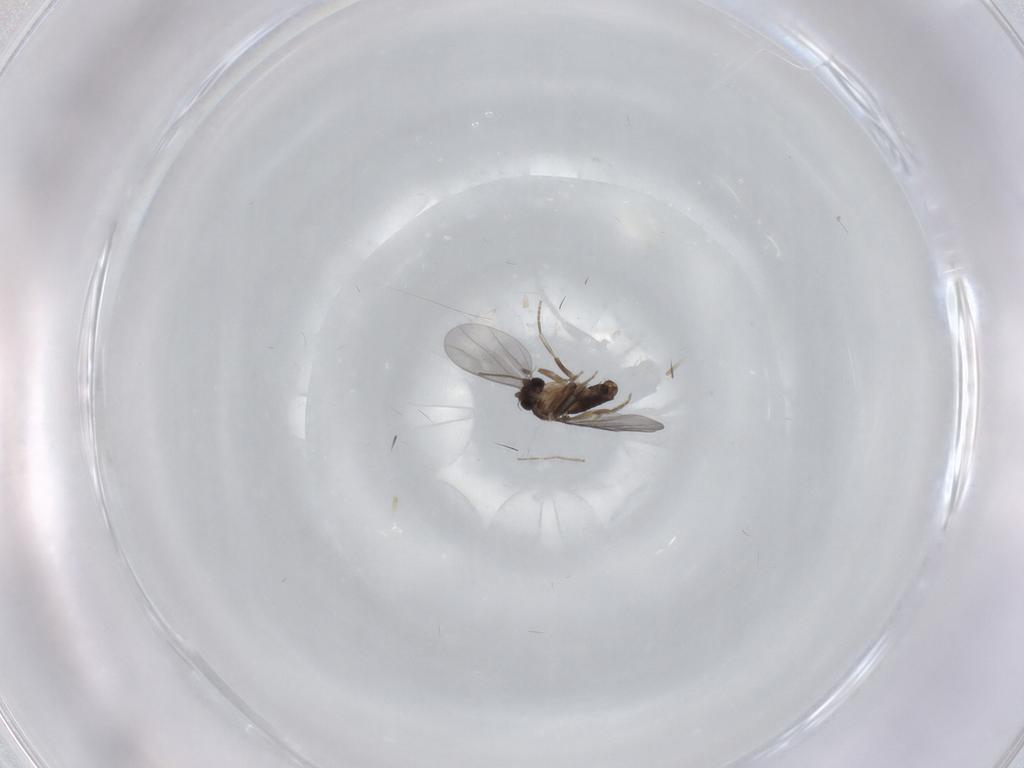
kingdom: Animalia
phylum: Arthropoda
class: Insecta
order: Diptera
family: Chironomidae
